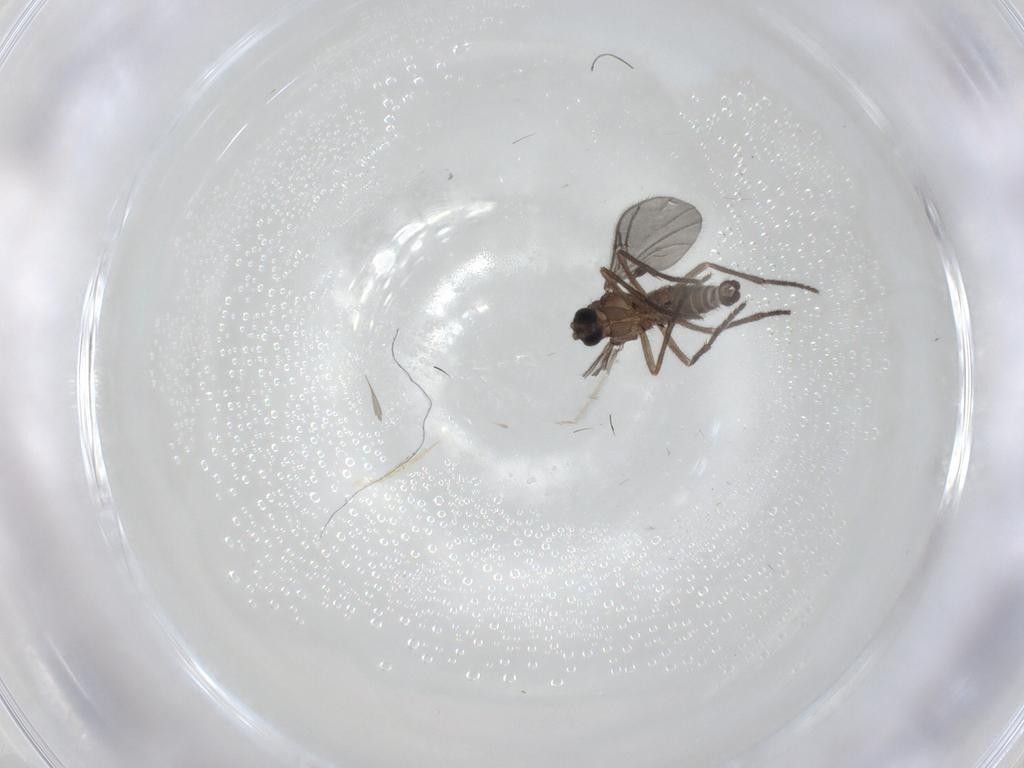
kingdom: Animalia
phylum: Arthropoda
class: Insecta
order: Diptera
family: Sciaridae
